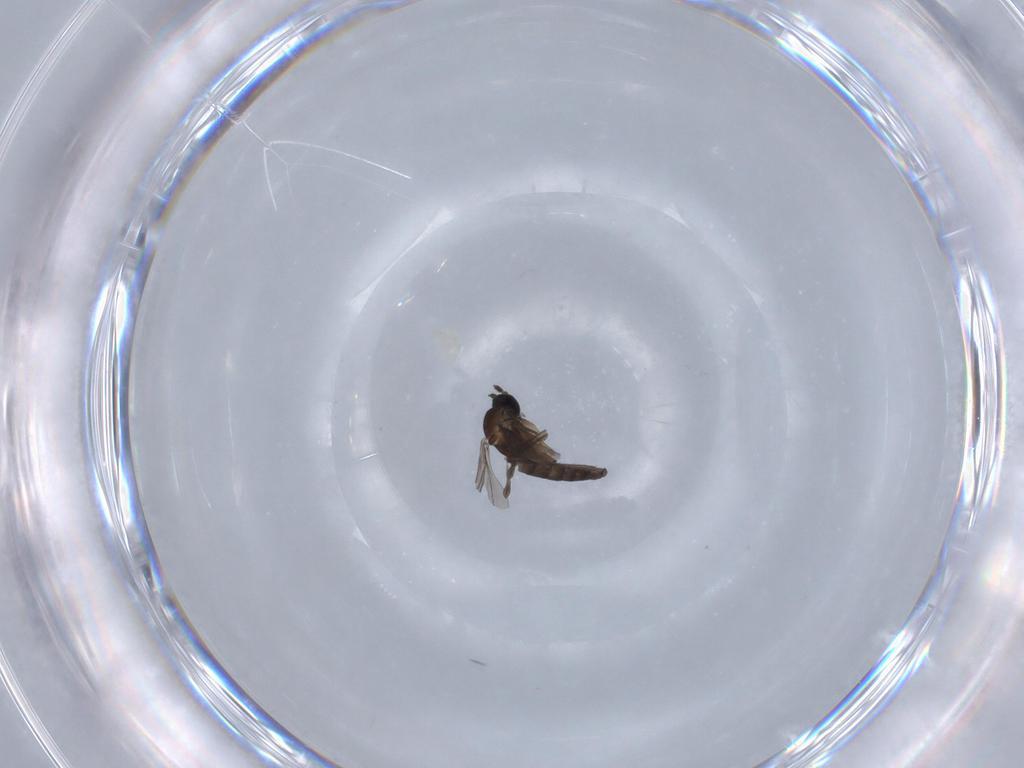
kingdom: Animalia
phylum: Arthropoda
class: Insecta
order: Diptera
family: Sciaridae
